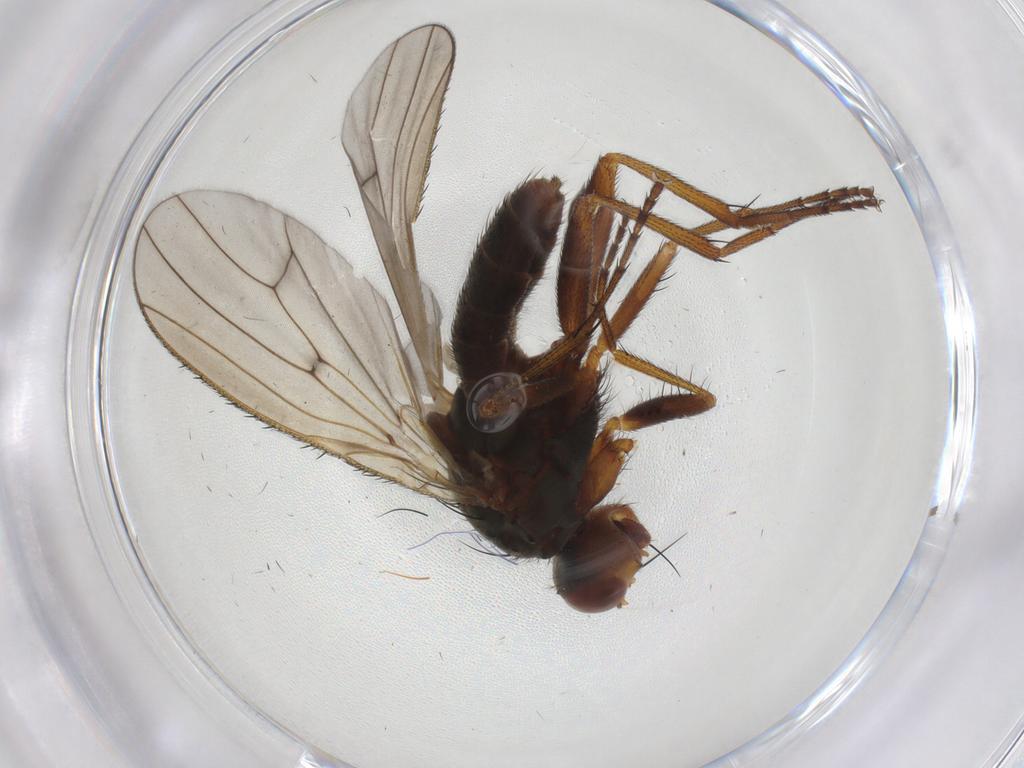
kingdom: Animalia
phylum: Arthropoda
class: Insecta
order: Diptera
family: Heleomyzidae
